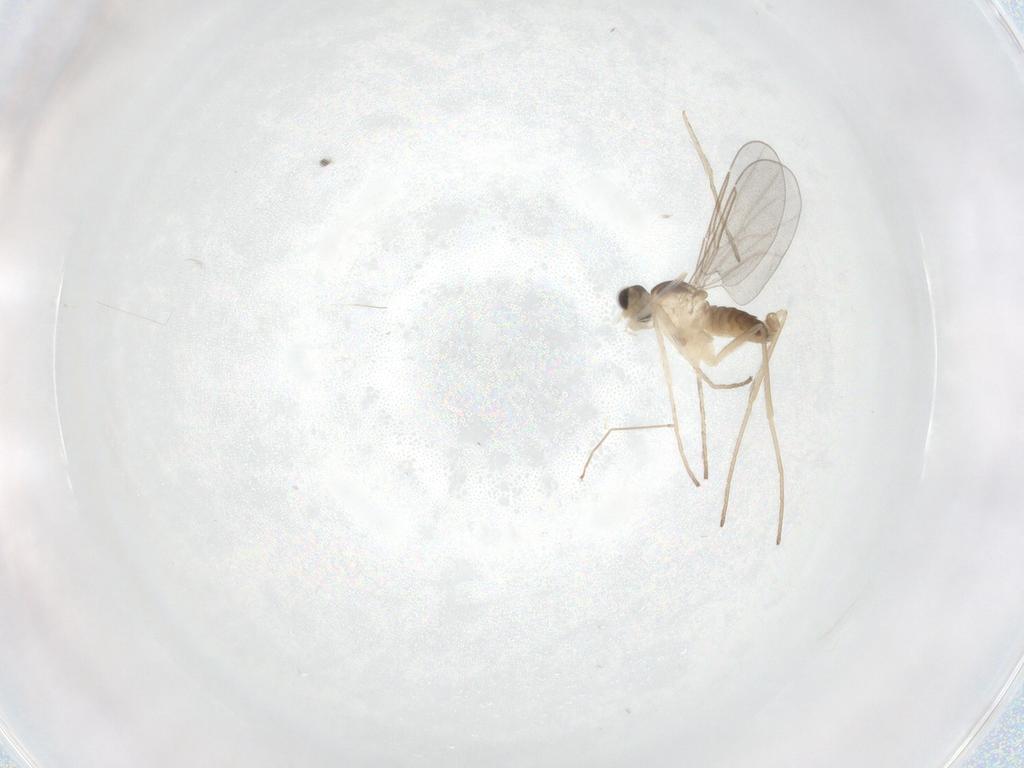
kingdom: Animalia
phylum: Arthropoda
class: Insecta
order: Diptera
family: Cecidomyiidae
